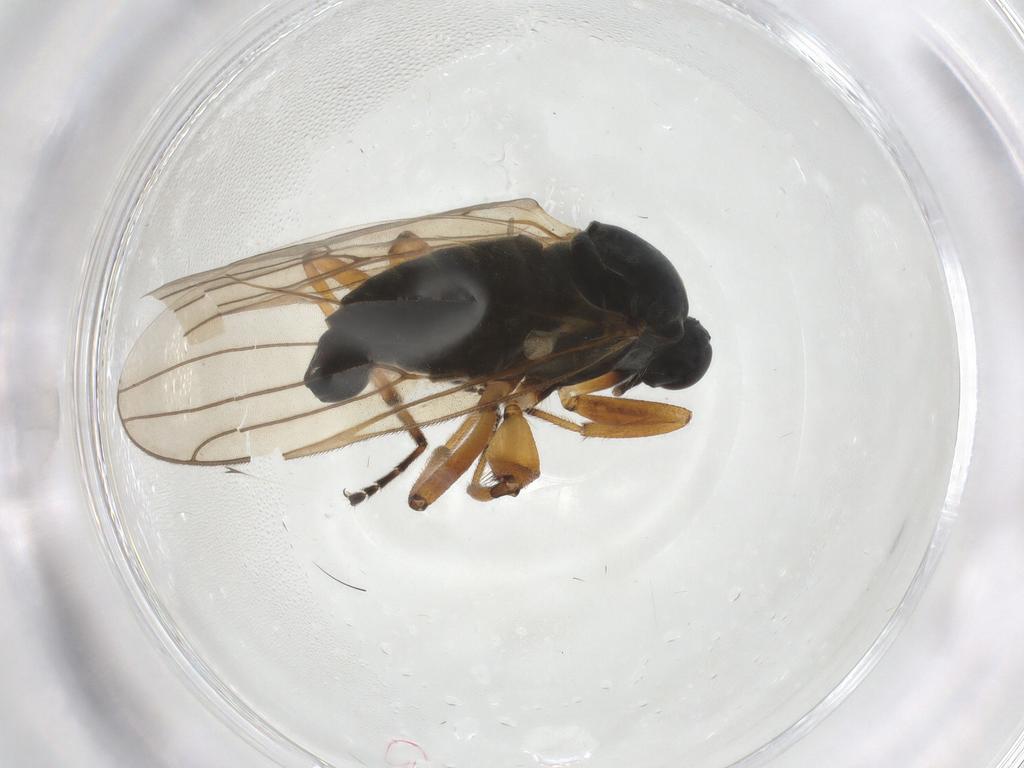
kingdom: Animalia
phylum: Arthropoda
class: Insecta
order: Diptera
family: Hybotidae
